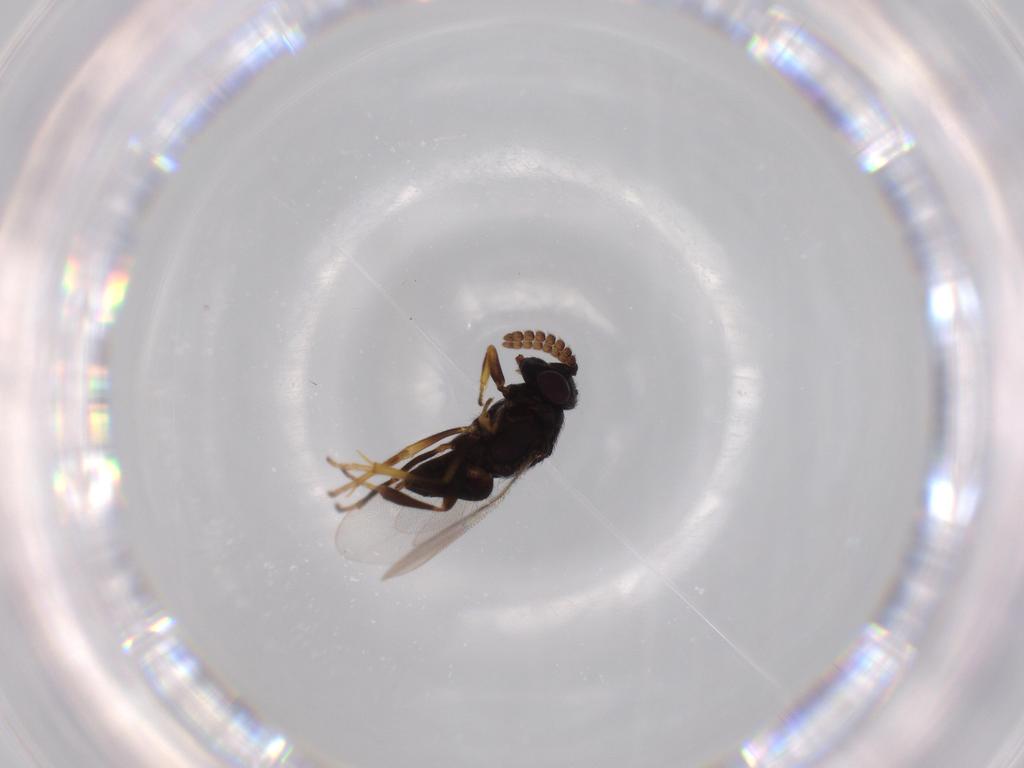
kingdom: Animalia
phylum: Arthropoda
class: Insecta
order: Hymenoptera
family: Encyrtidae
